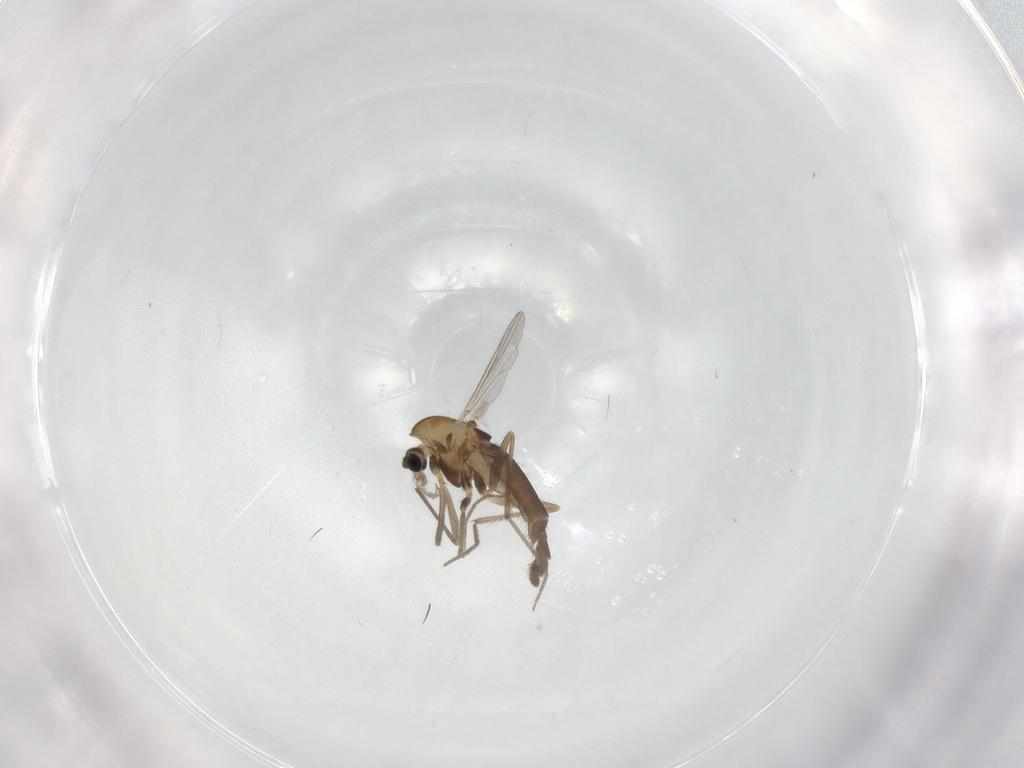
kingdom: Animalia
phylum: Arthropoda
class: Insecta
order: Diptera
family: Chironomidae
